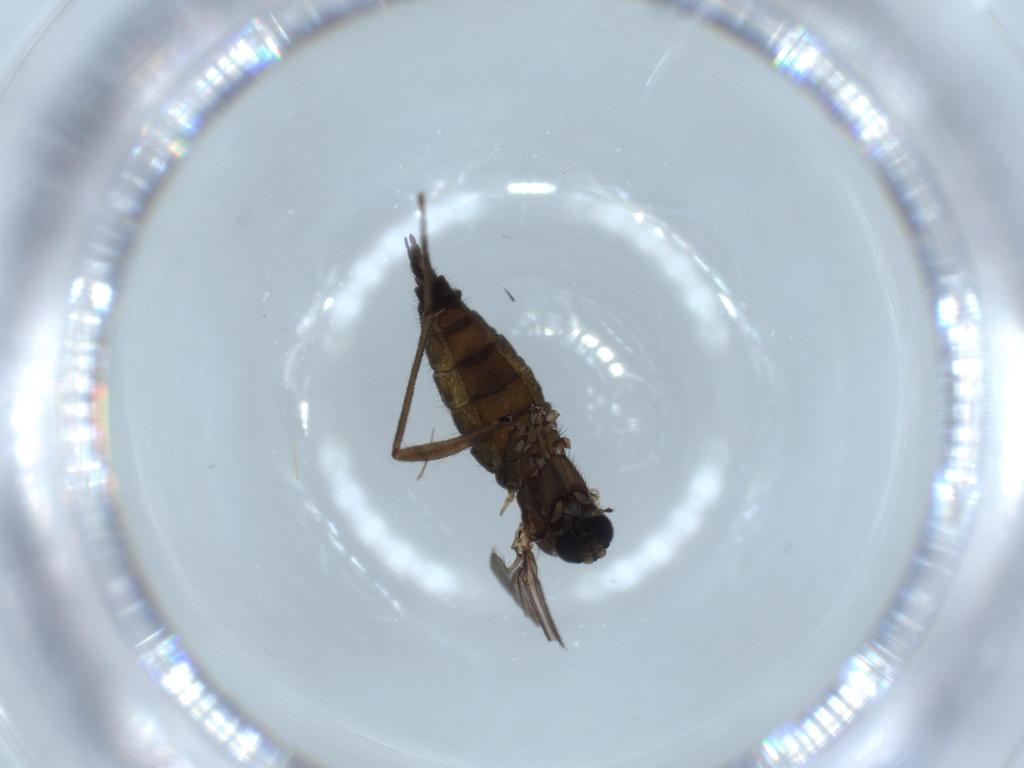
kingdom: Animalia
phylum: Arthropoda
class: Insecta
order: Diptera
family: Sciaridae
